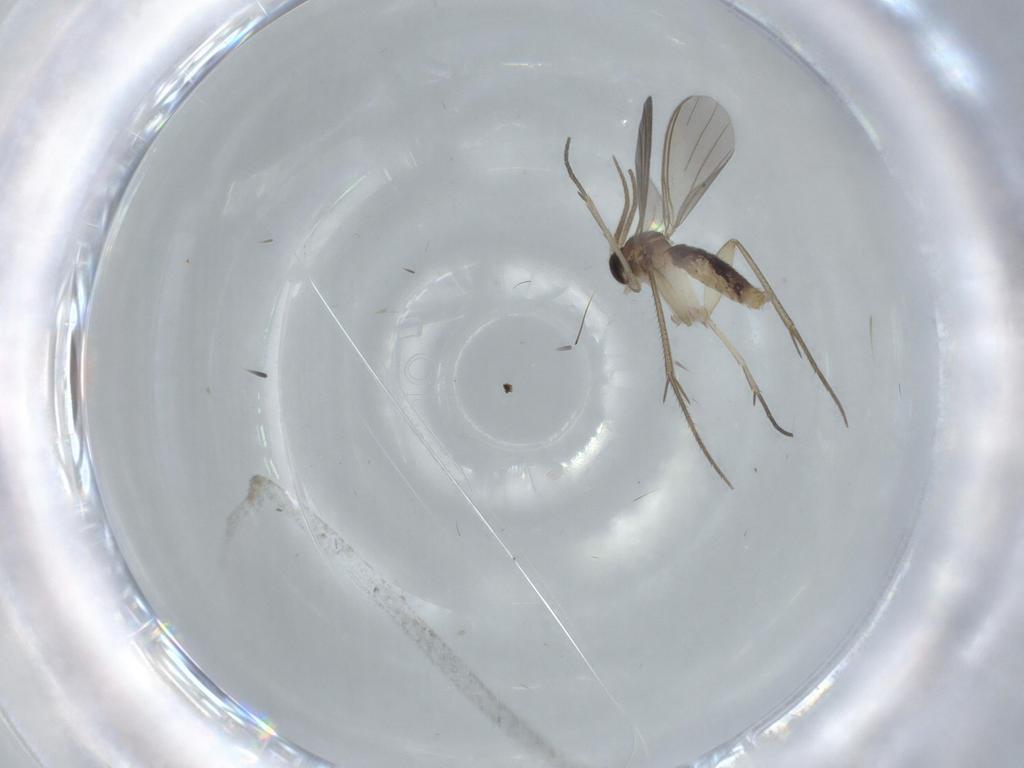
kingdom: Animalia
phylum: Arthropoda
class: Insecta
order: Diptera
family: Mycetophilidae
